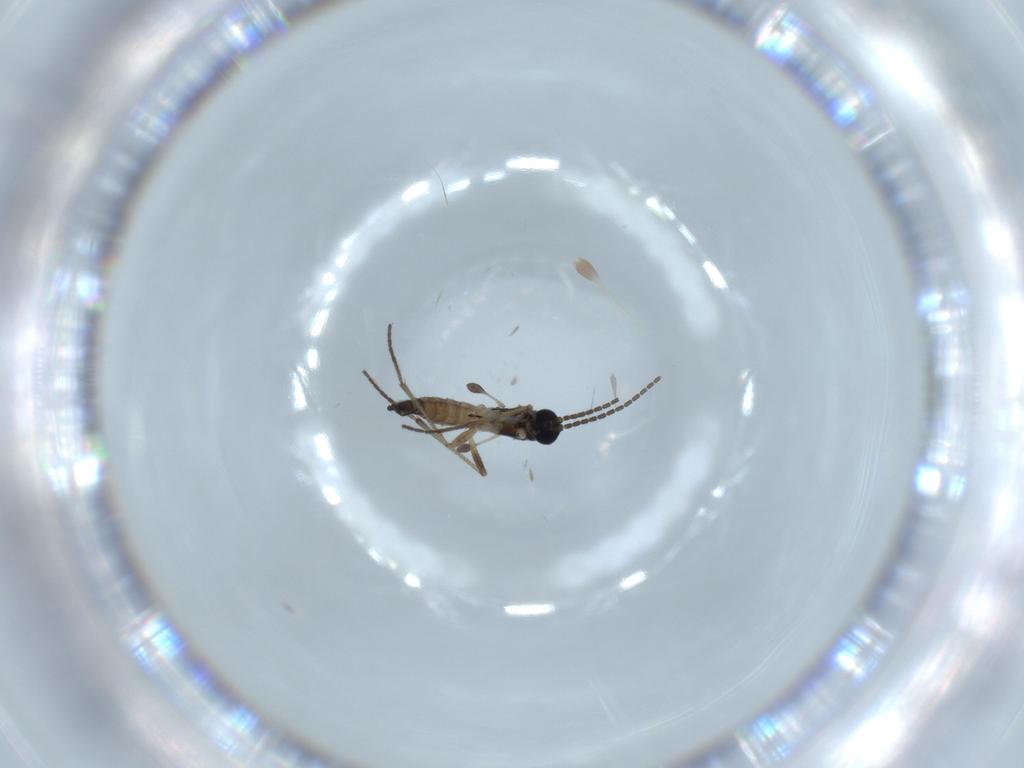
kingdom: Animalia
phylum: Arthropoda
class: Insecta
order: Diptera
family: Sciaridae
